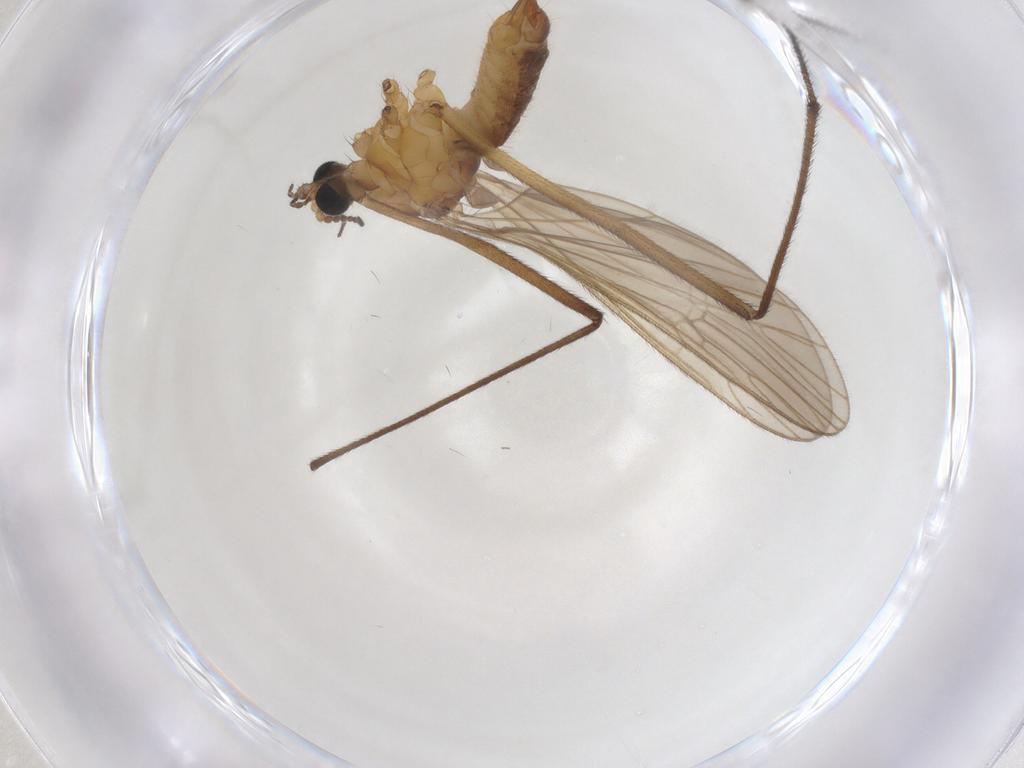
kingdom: Animalia
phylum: Arthropoda
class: Insecta
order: Diptera
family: Limoniidae
